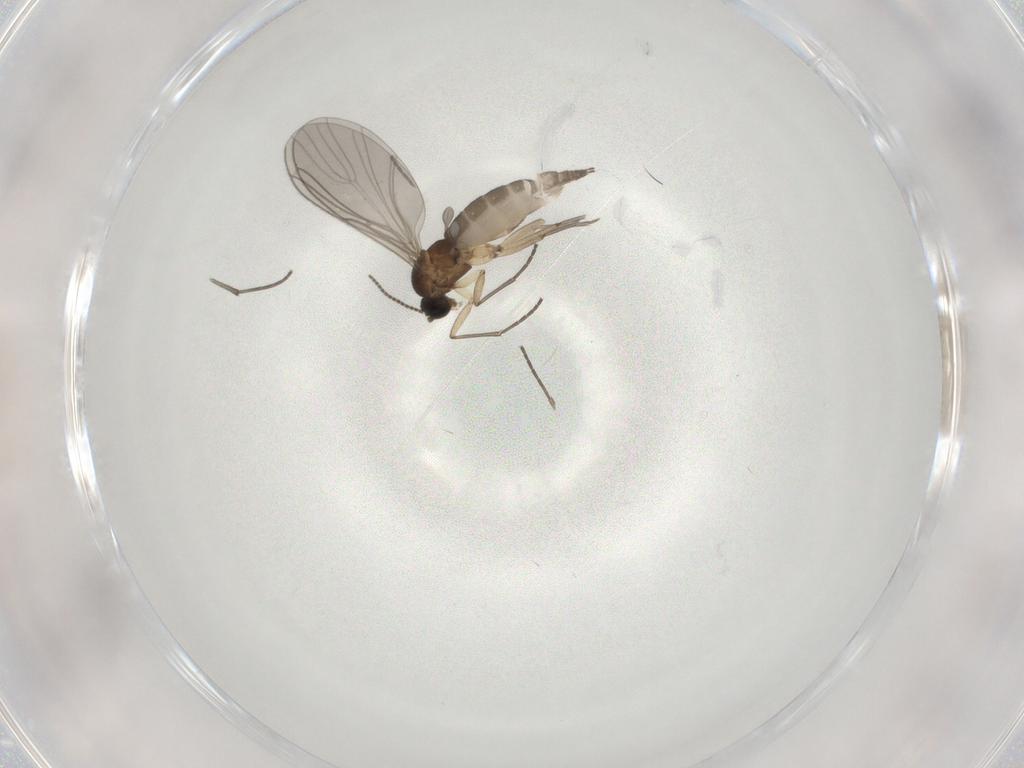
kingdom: Animalia
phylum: Arthropoda
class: Insecta
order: Diptera
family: Sciaridae
